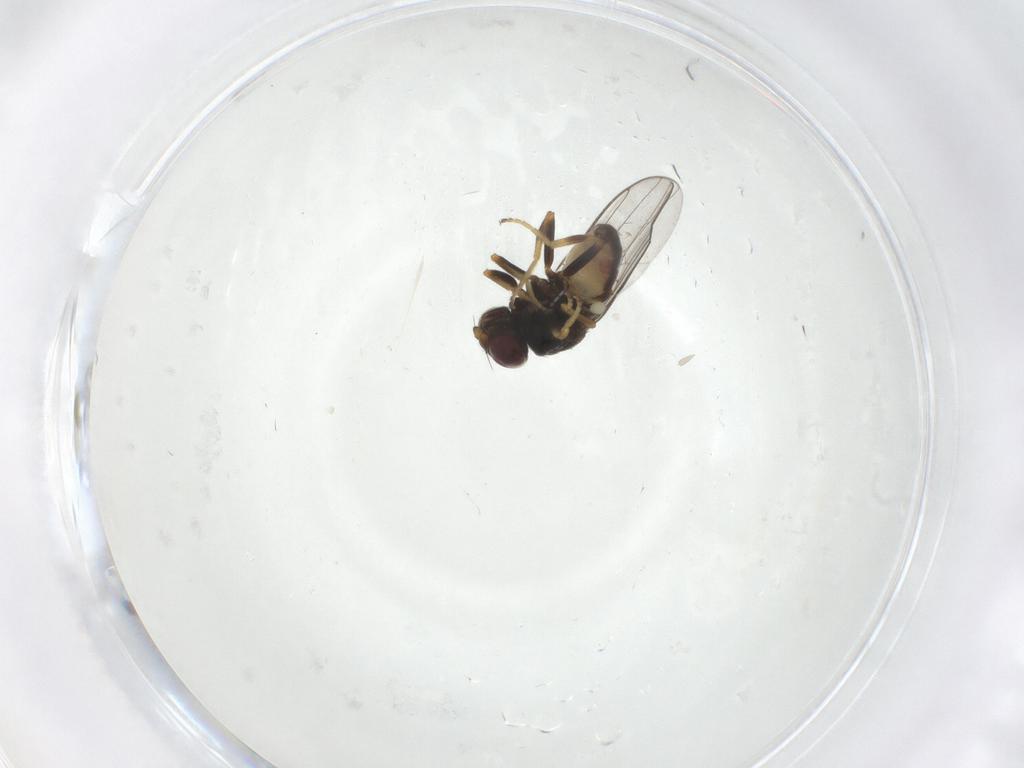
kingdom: Animalia
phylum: Arthropoda
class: Insecta
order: Diptera
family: Chloropidae
